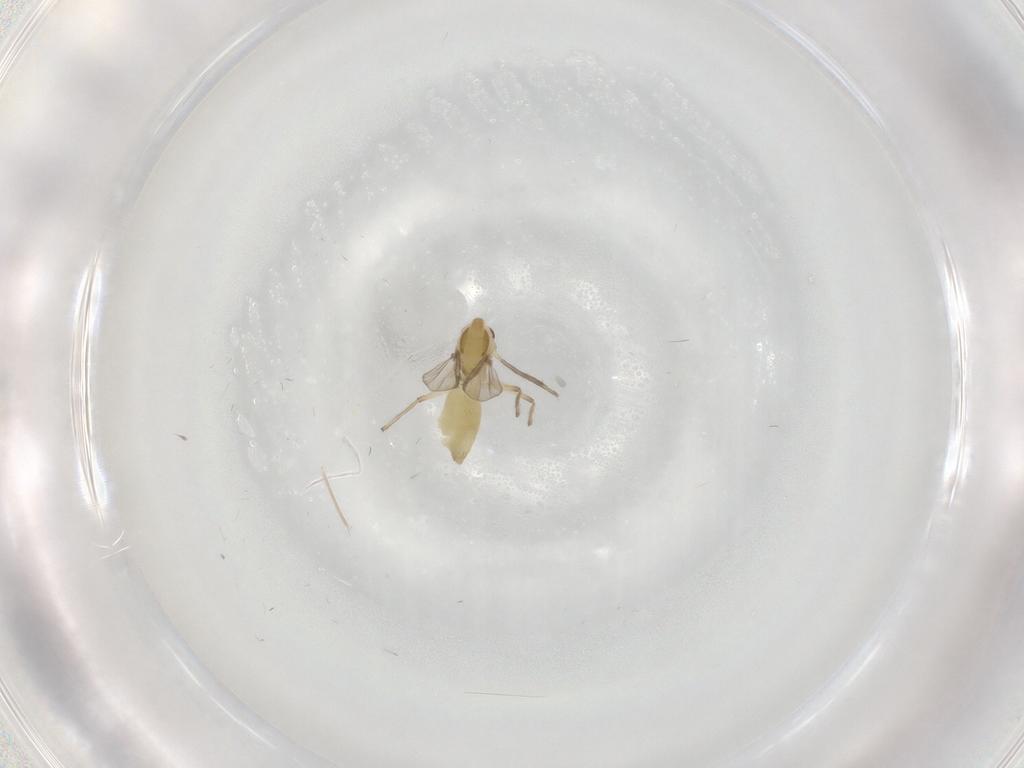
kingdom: Animalia
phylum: Arthropoda
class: Insecta
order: Diptera
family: Chironomidae
